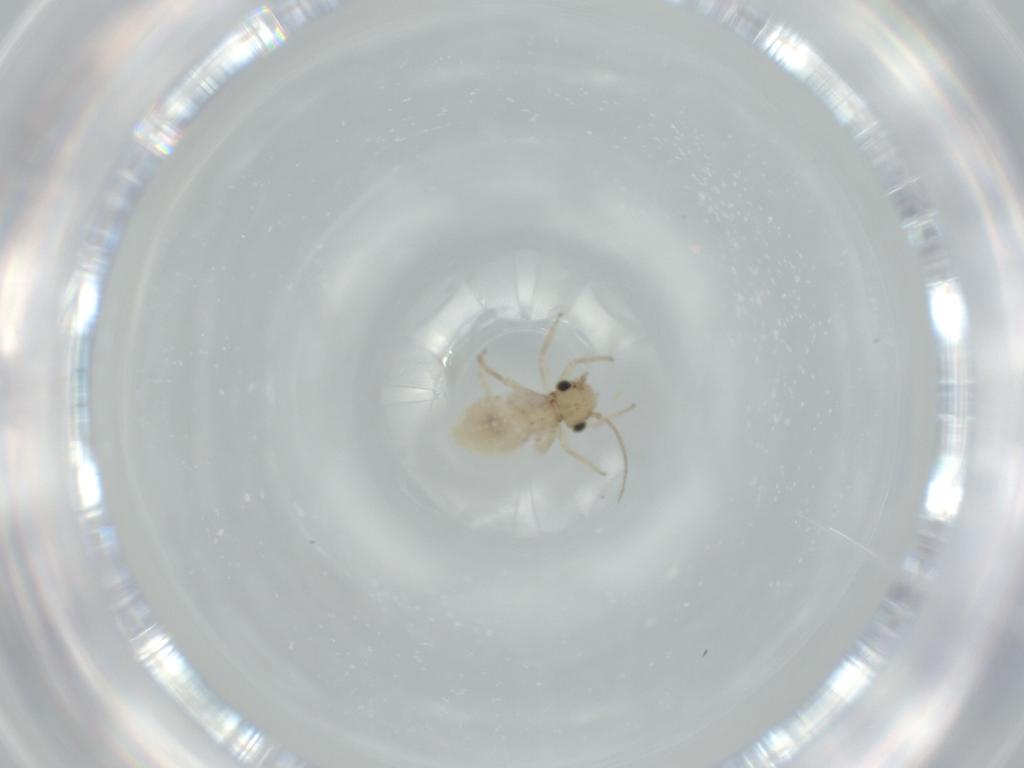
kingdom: Animalia
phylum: Arthropoda
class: Insecta
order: Psocodea
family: Lachesillidae
